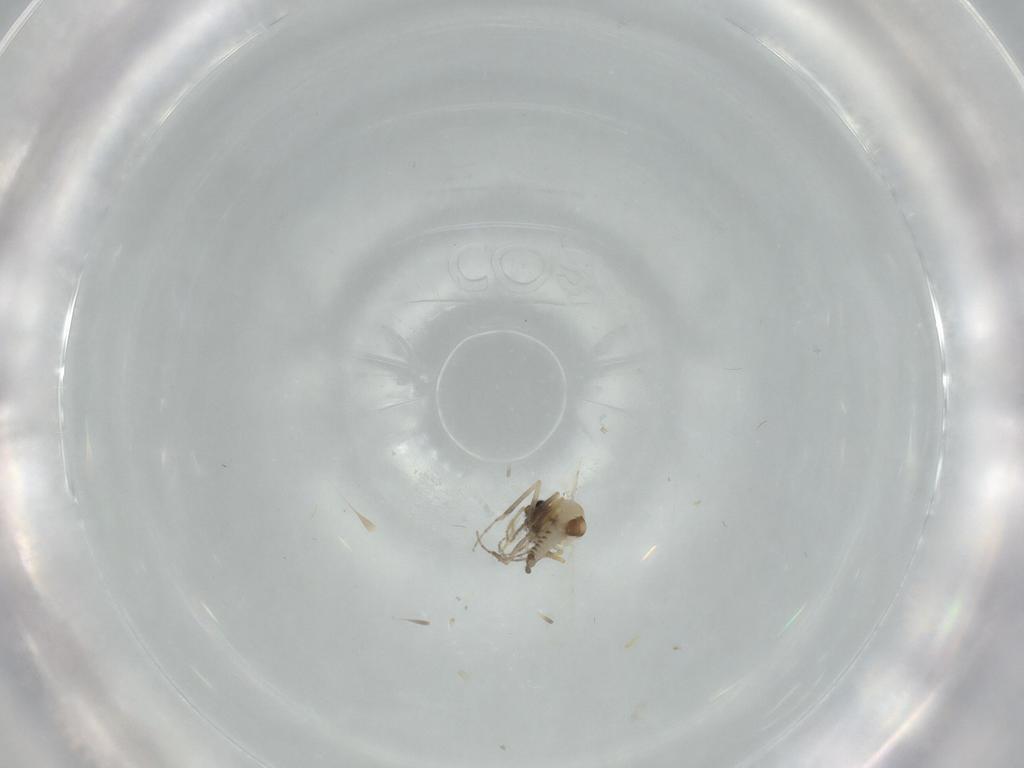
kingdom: Animalia
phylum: Arthropoda
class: Insecta
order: Diptera
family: Ceratopogonidae
